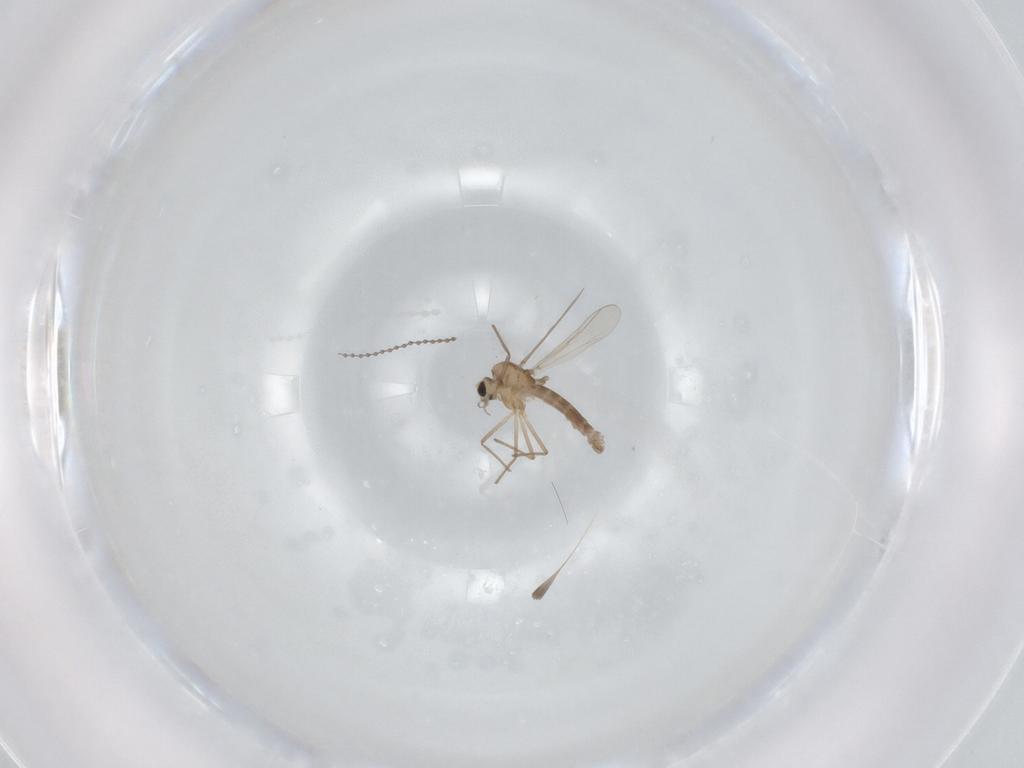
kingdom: Animalia
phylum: Arthropoda
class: Insecta
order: Diptera
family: Chironomidae
